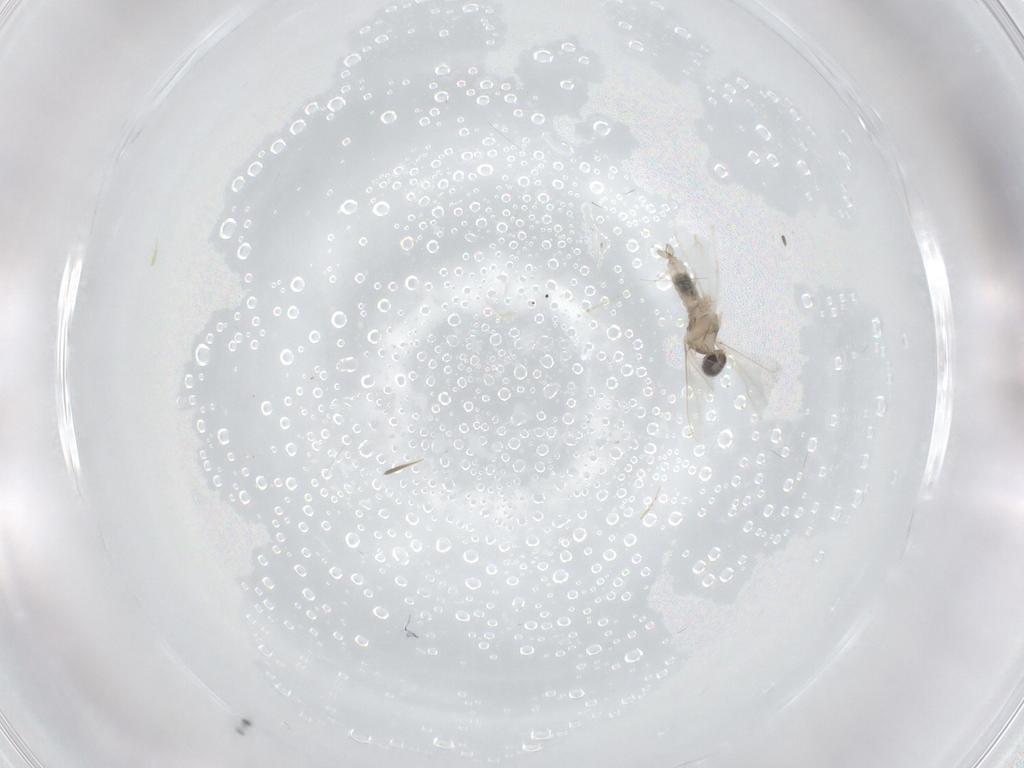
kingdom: Animalia
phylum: Arthropoda
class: Insecta
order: Diptera
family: Cecidomyiidae
